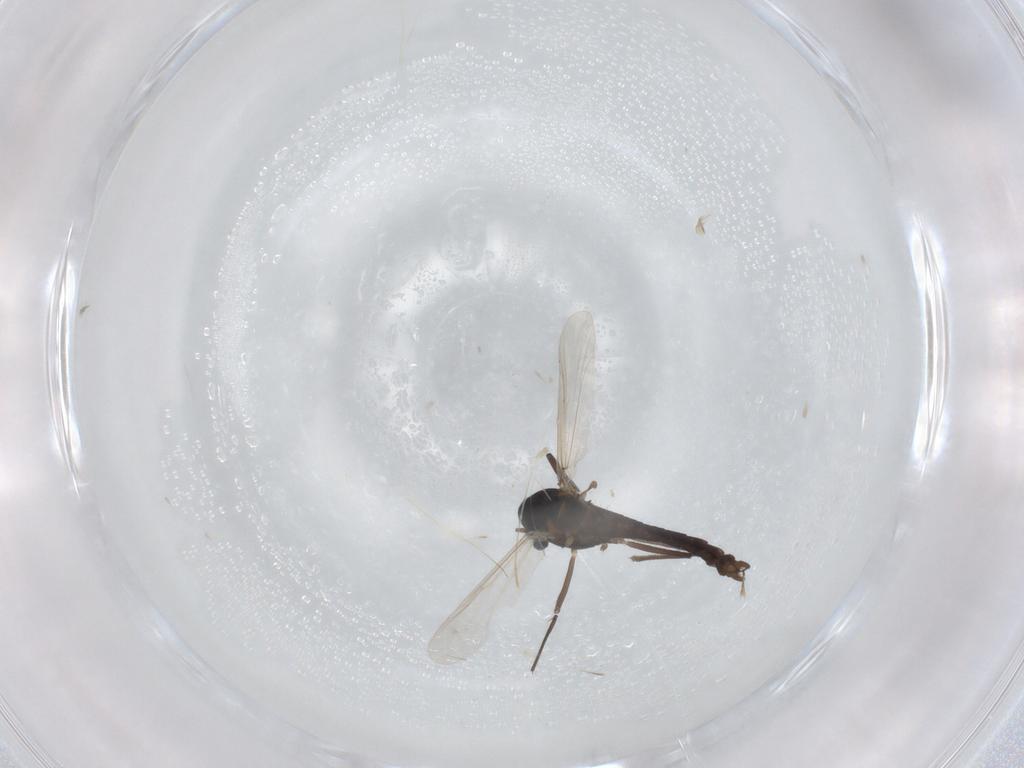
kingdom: Animalia
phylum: Arthropoda
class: Insecta
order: Diptera
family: Chironomidae
